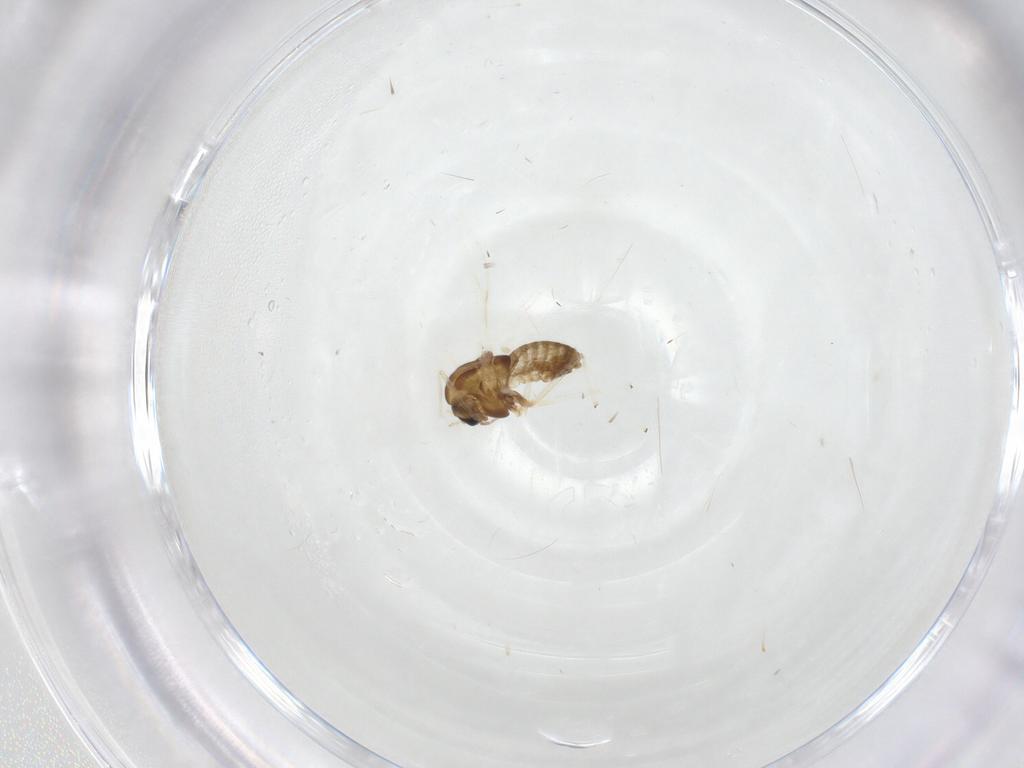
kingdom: Animalia
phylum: Arthropoda
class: Insecta
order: Diptera
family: Chironomidae
